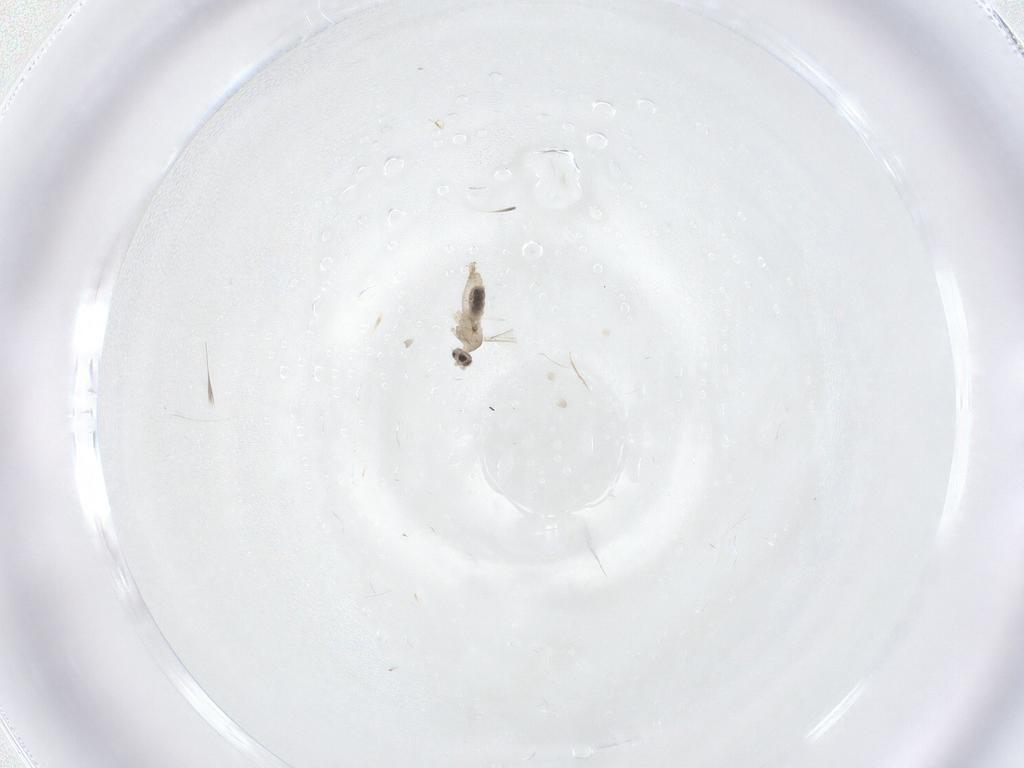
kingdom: Animalia
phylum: Arthropoda
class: Insecta
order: Diptera
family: Cecidomyiidae
